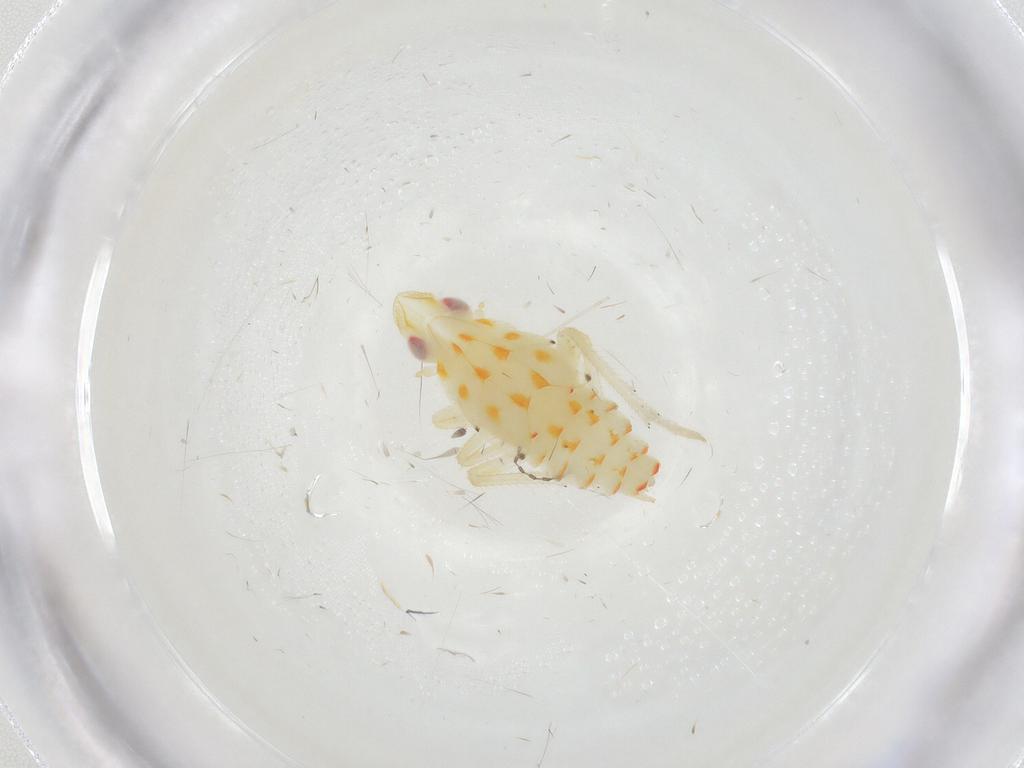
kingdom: Animalia
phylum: Arthropoda
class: Insecta
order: Hemiptera
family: Tropiduchidae
